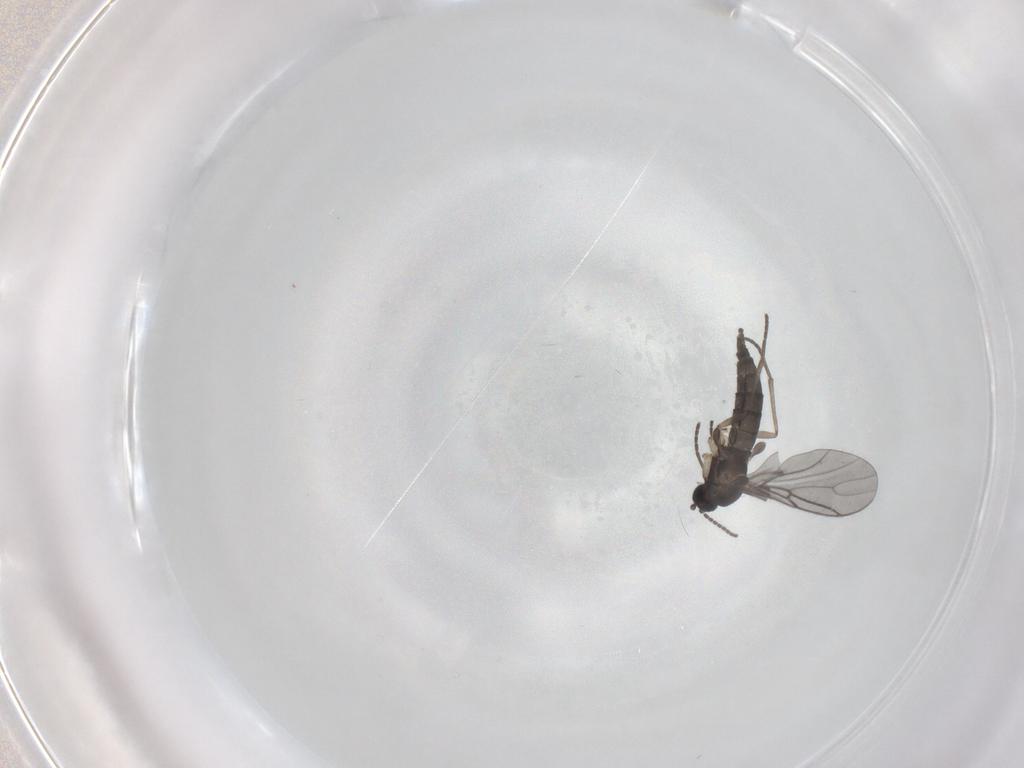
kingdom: Animalia
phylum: Arthropoda
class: Insecta
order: Diptera
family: Sciaridae
